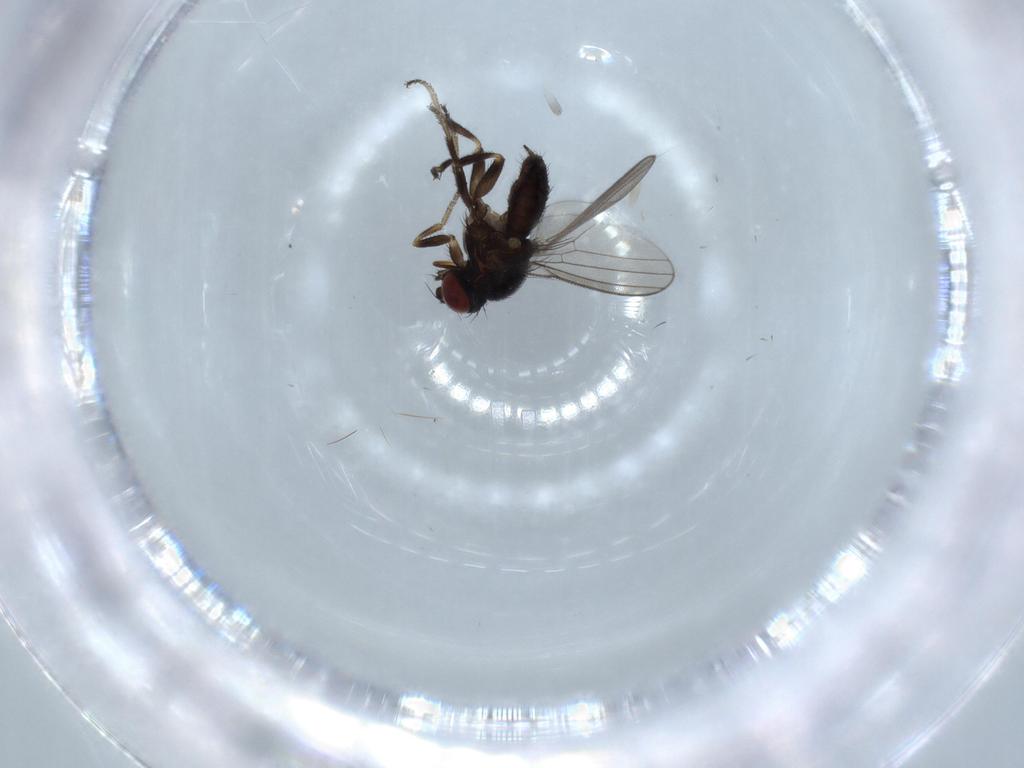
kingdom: Animalia
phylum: Arthropoda
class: Insecta
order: Diptera
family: Milichiidae
